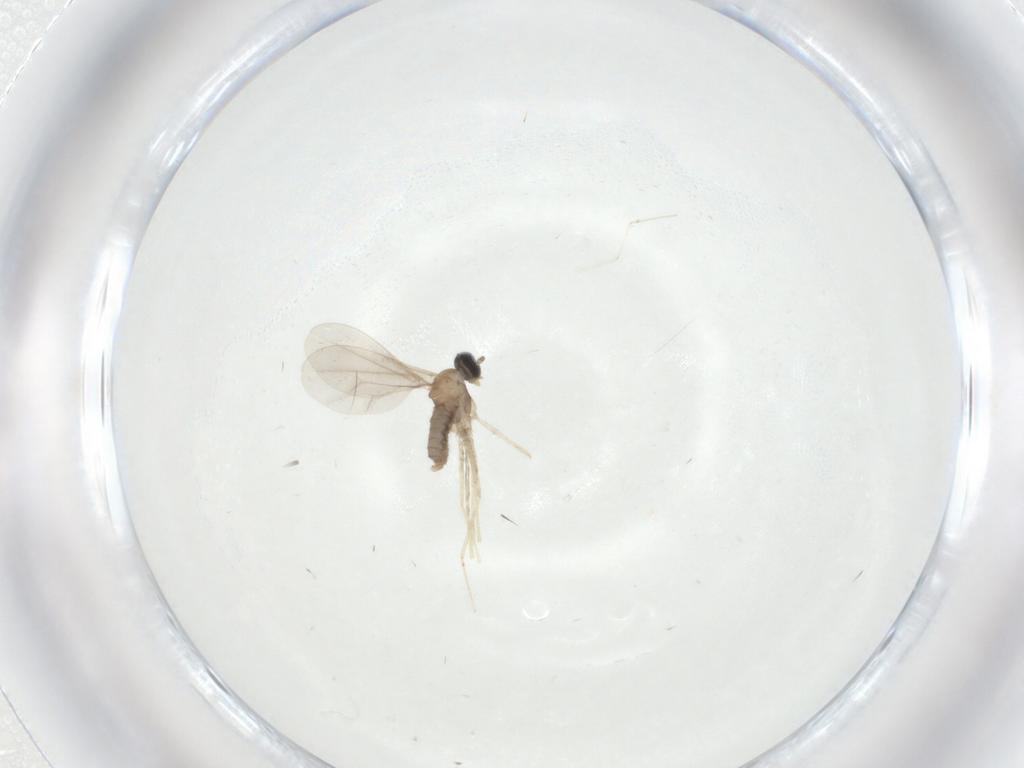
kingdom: Animalia
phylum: Arthropoda
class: Insecta
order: Diptera
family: Cecidomyiidae
